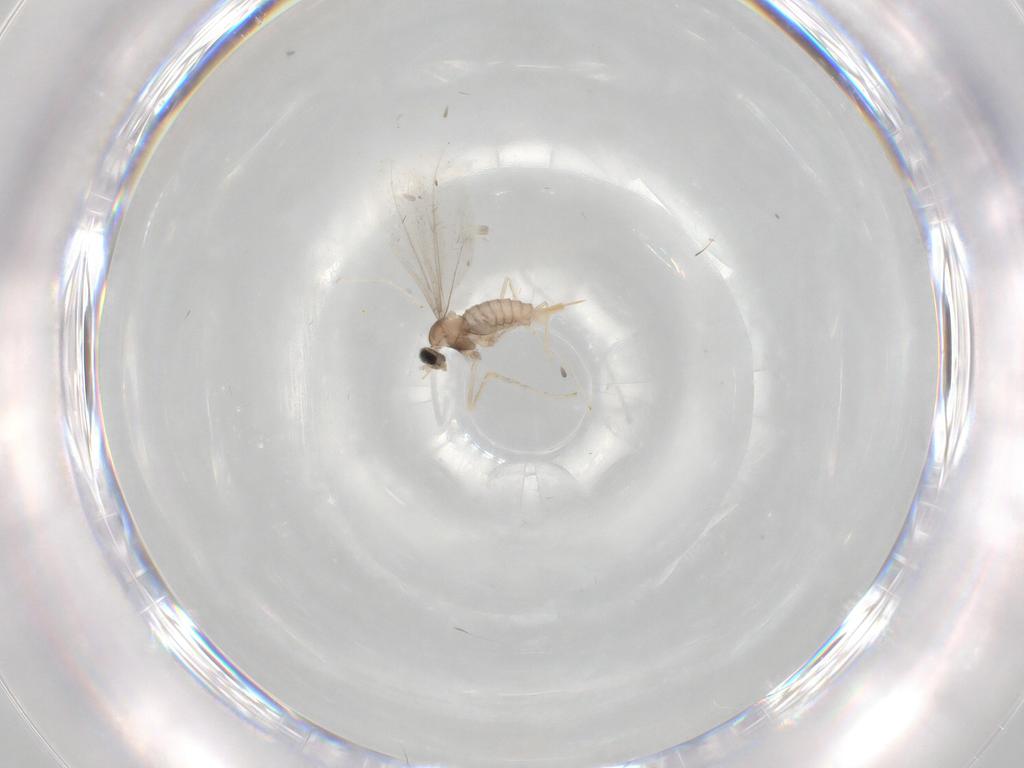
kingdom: Animalia
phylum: Arthropoda
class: Insecta
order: Diptera
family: Cecidomyiidae
